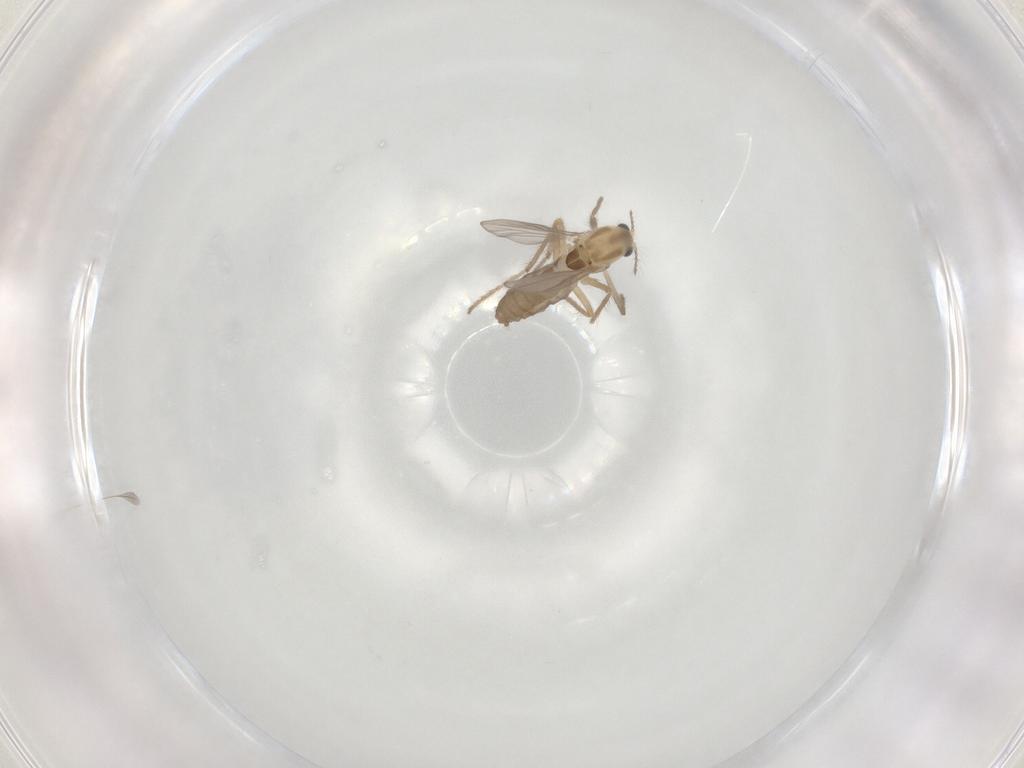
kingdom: Animalia
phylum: Arthropoda
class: Insecta
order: Diptera
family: Chironomidae
